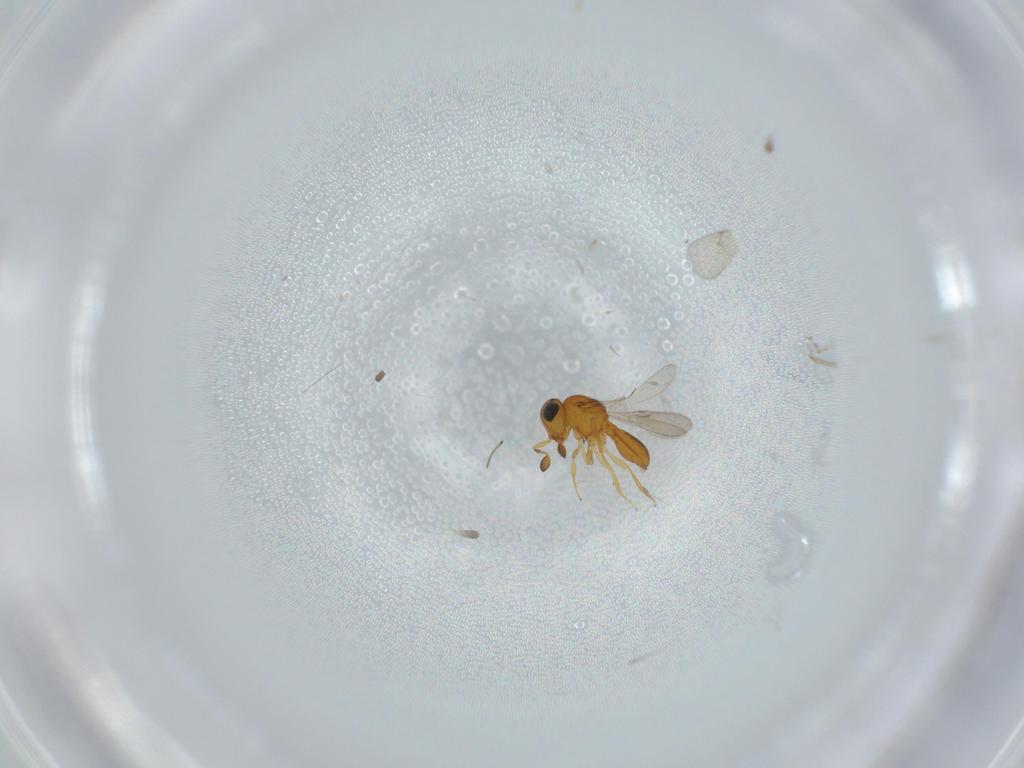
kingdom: Animalia
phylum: Arthropoda
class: Insecta
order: Hymenoptera
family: Scelionidae
